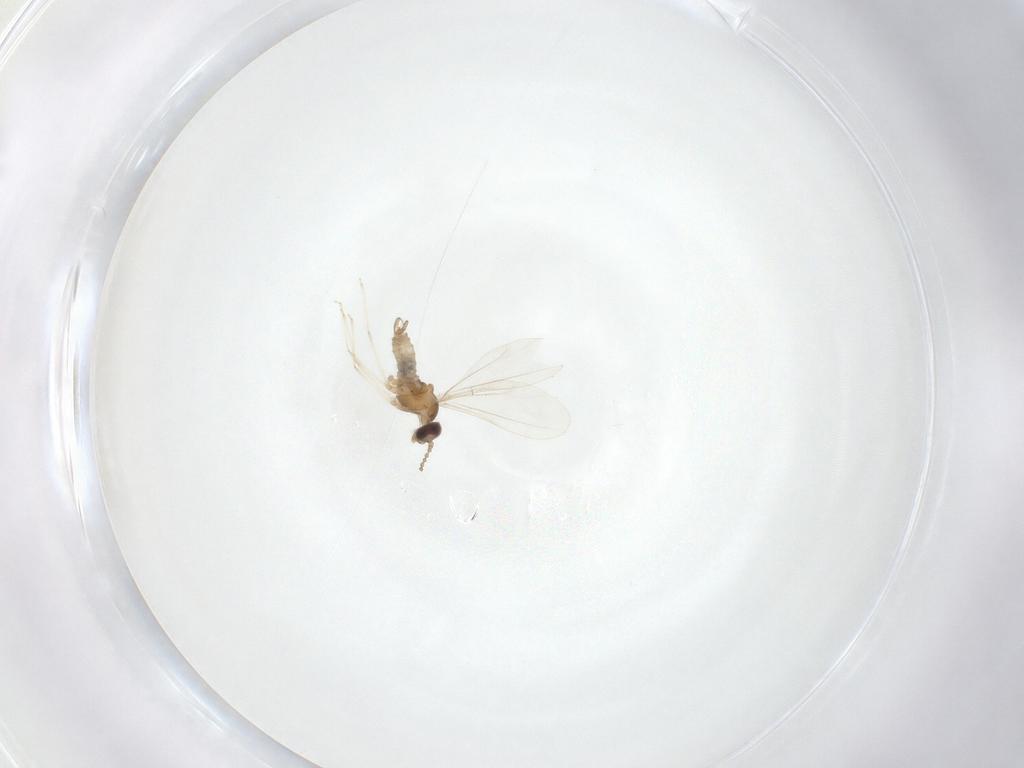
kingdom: Animalia
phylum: Arthropoda
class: Insecta
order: Diptera
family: Cecidomyiidae
